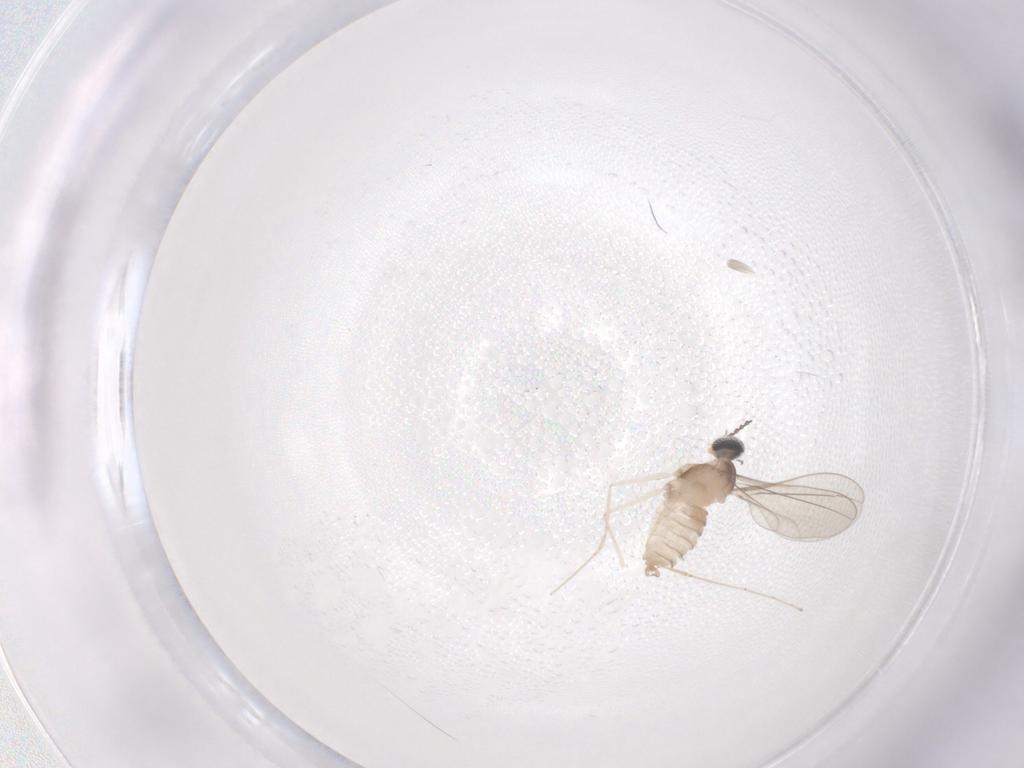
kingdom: Animalia
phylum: Arthropoda
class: Insecta
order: Diptera
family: Cecidomyiidae
